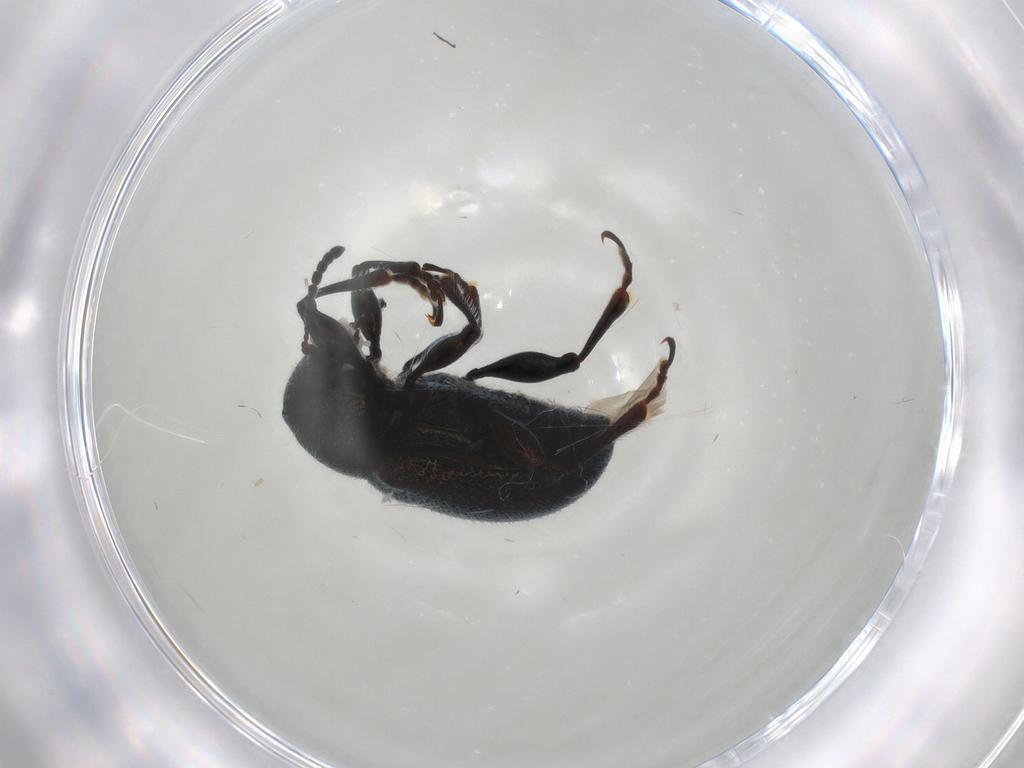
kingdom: Animalia
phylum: Arthropoda
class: Insecta
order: Coleoptera
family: Chrysomelidae
